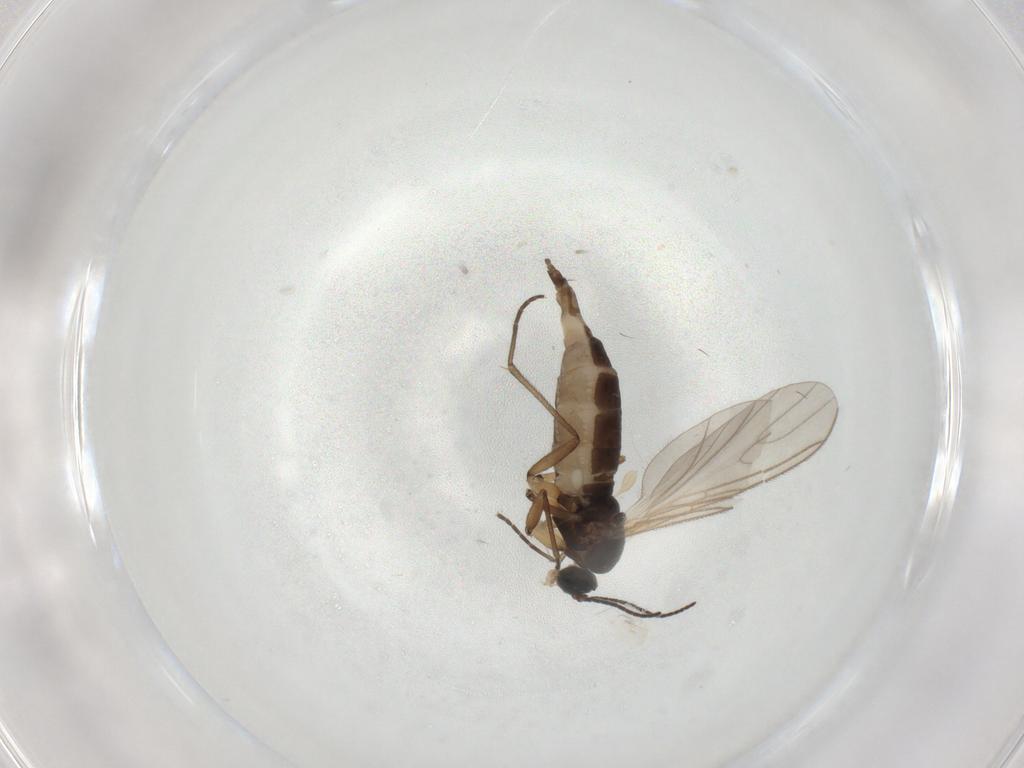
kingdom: Animalia
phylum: Arthropoda
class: Insecta
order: Diptera
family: Sciaridae
